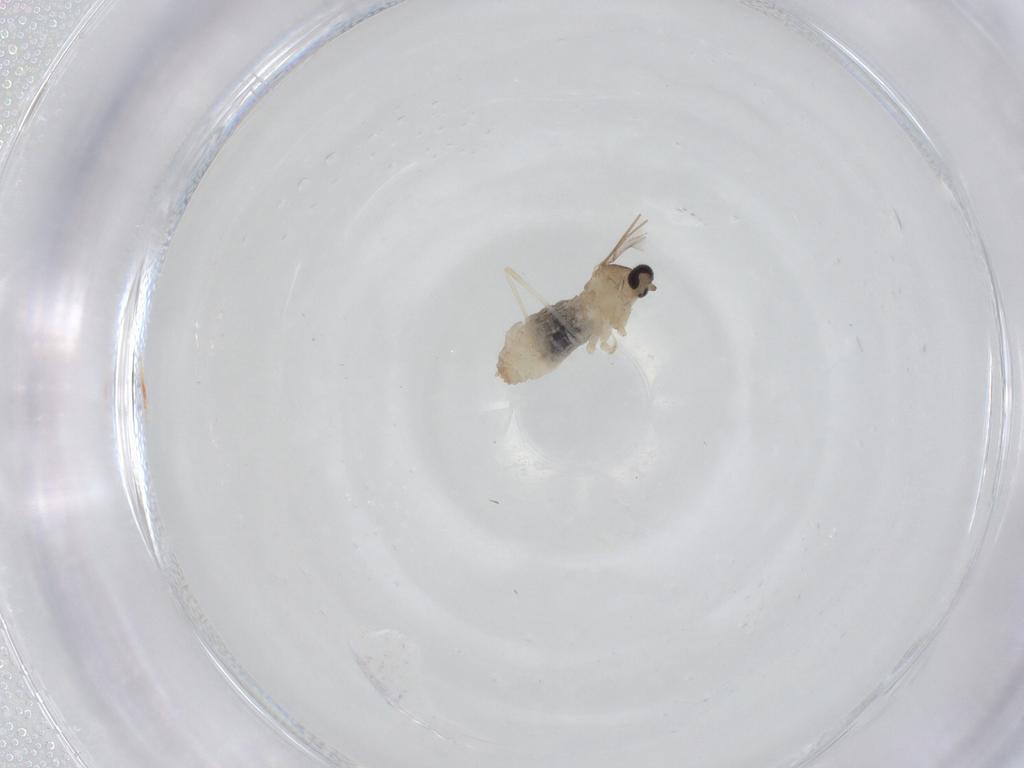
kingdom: Animalia
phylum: Arthropoda
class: Insecta
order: Diptera
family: Cecidomyiidae
